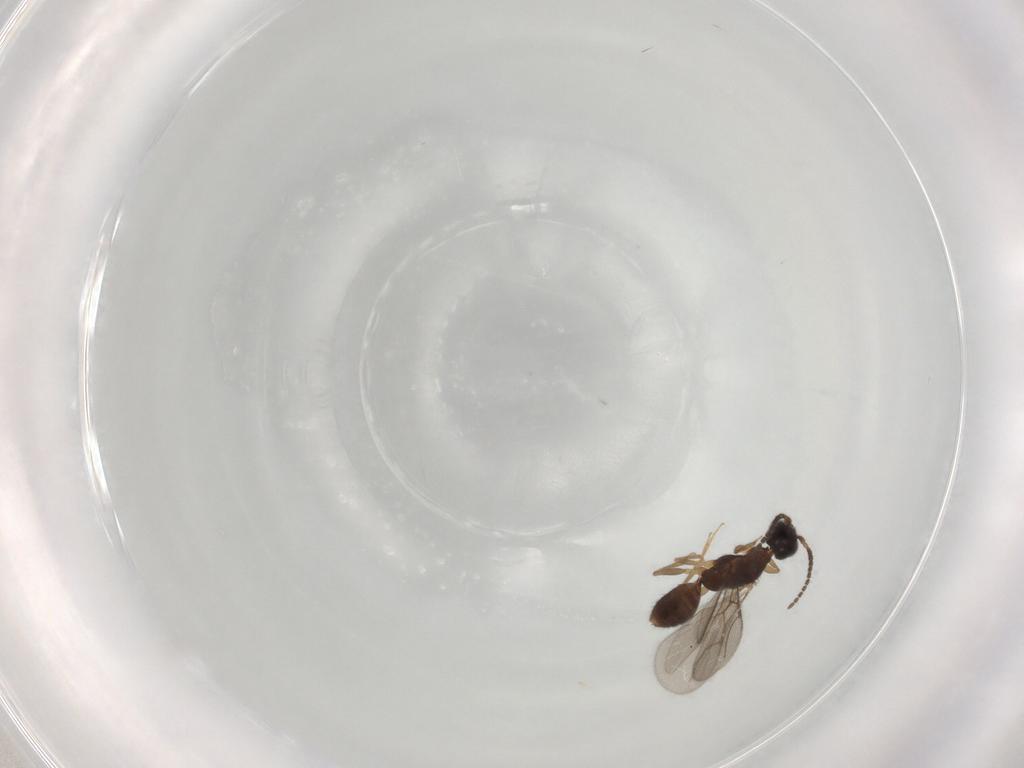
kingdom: Animalia
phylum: Arthropoda
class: Insecta
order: Hymenoptera
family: Bethylidae
